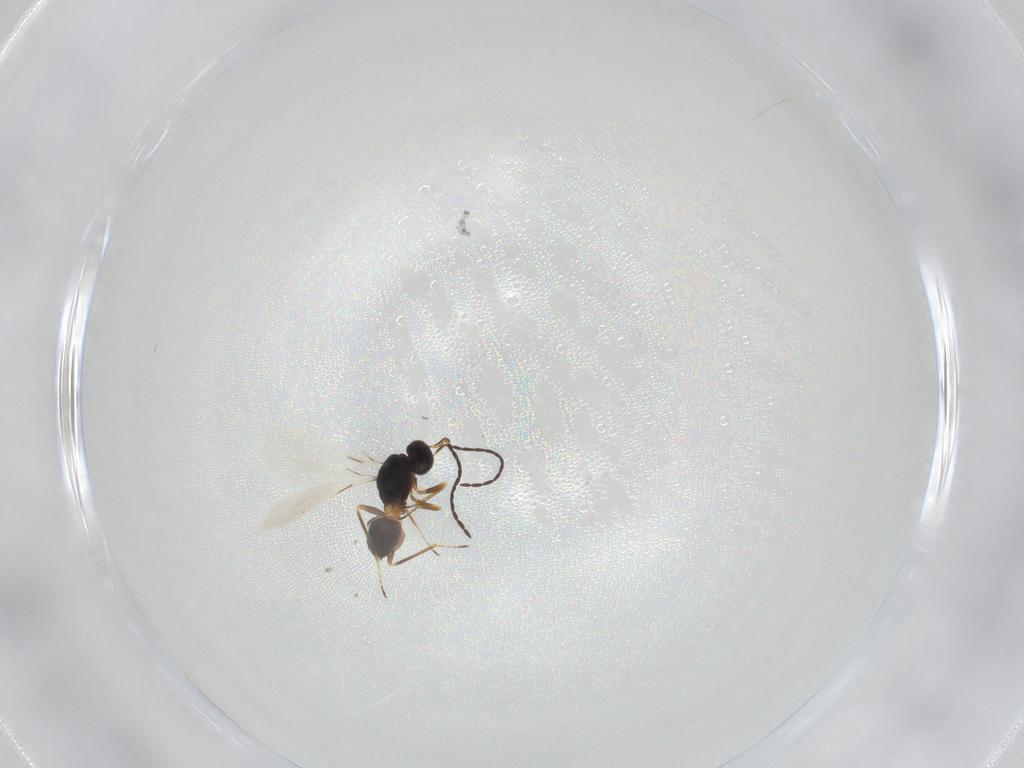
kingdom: Animalia
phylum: Arthropoda
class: Insecta
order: Hymenoptera
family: Mymaridae
